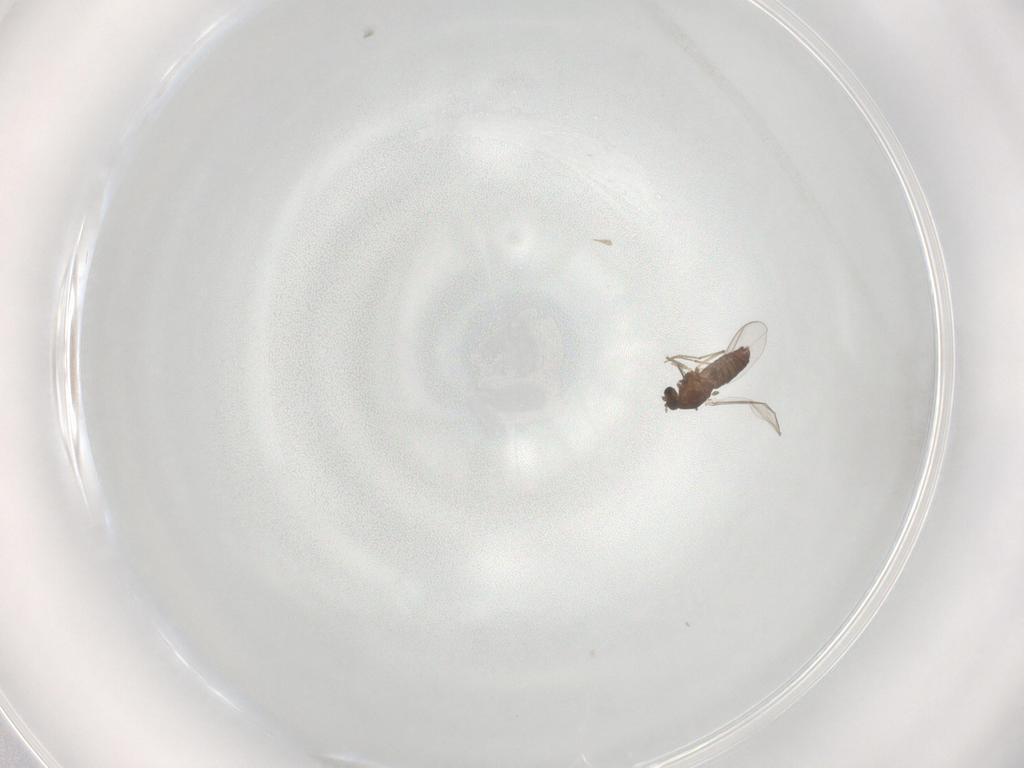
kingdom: Animalia
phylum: Arthropoda
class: Insecta
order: Diptera
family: Chironomidae
